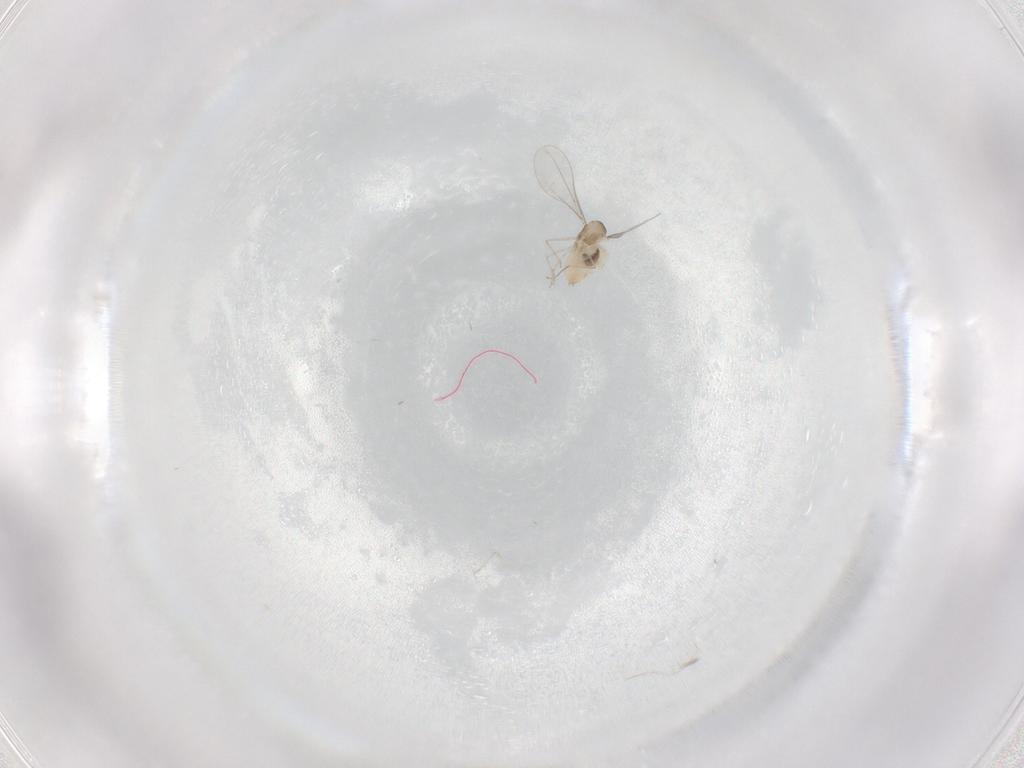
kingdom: Animalia
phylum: Arthropoda
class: Insecta
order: Diptera
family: Cecidomyiidae
